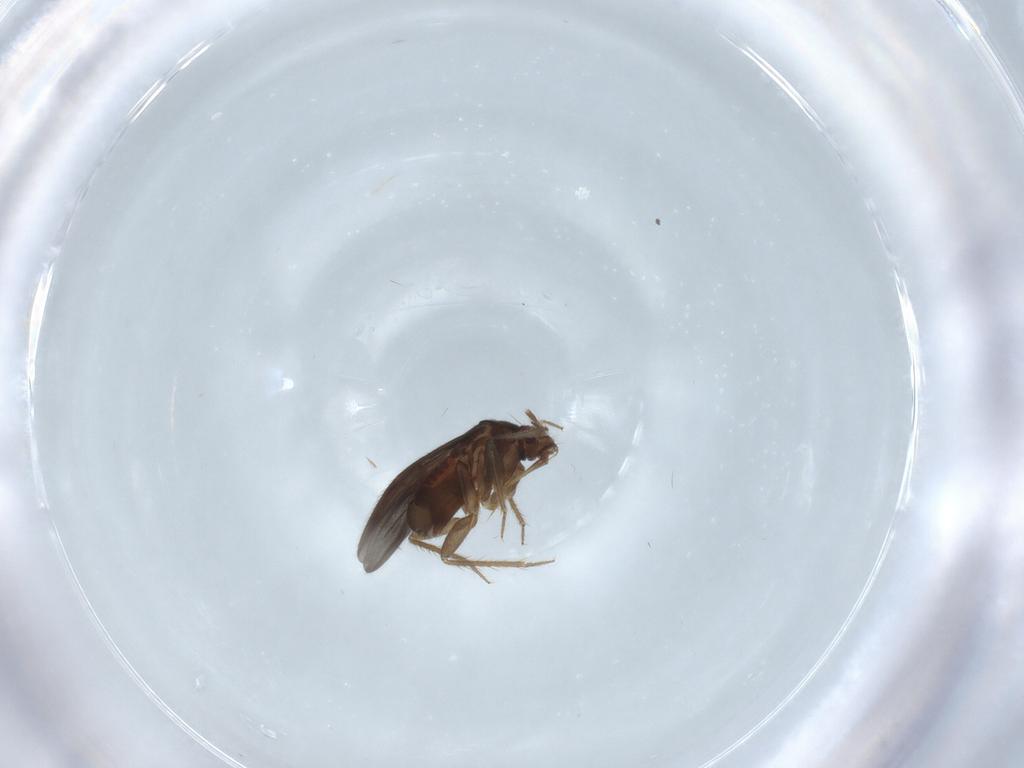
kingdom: Animalia
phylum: Arthropoda
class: Insecta
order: Hemiptera
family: Ceratocombidae
